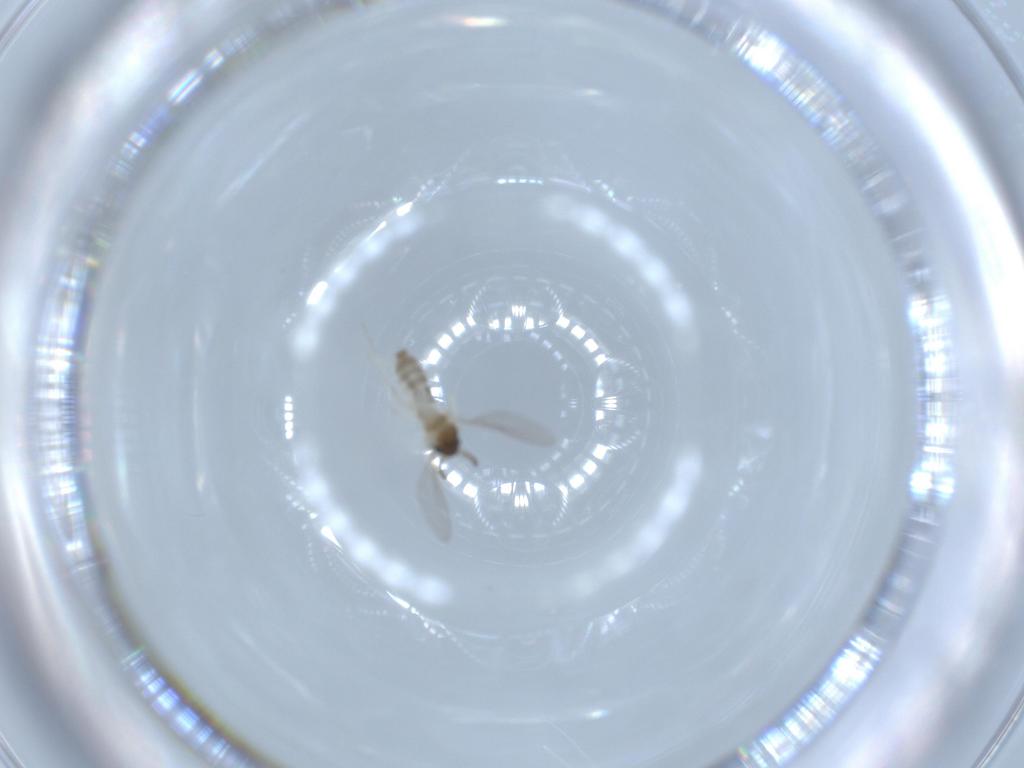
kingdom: Animalia
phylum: Arthropoda
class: Insecta
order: Diptera
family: Cecidomyiidae
